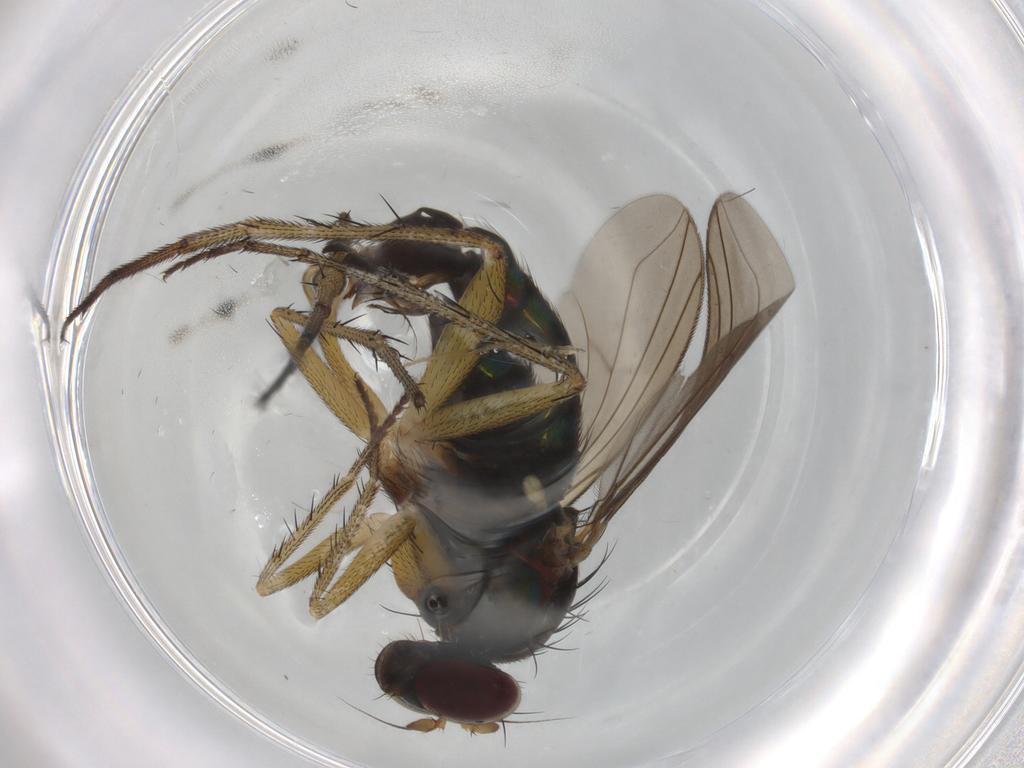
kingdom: Animalia
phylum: Arthropoda
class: Insecta
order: Diptera
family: Dolichopodidae
